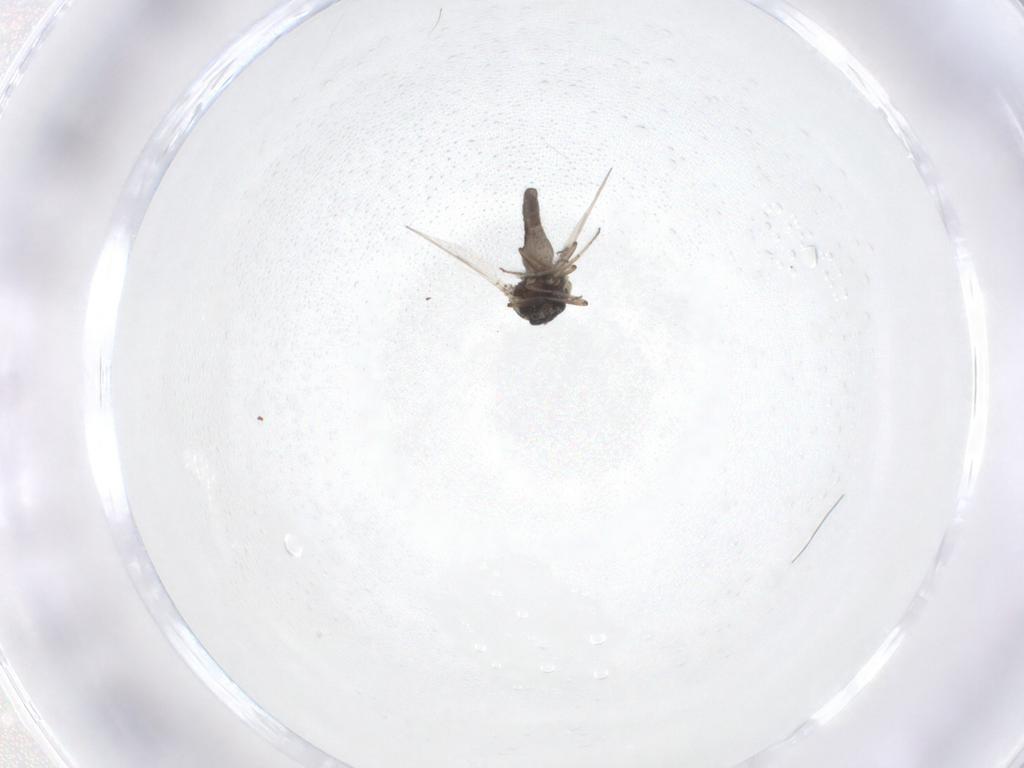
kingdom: Animalia
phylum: Arthropoda
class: Insecta
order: Diptera
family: Ceratopogonidae
